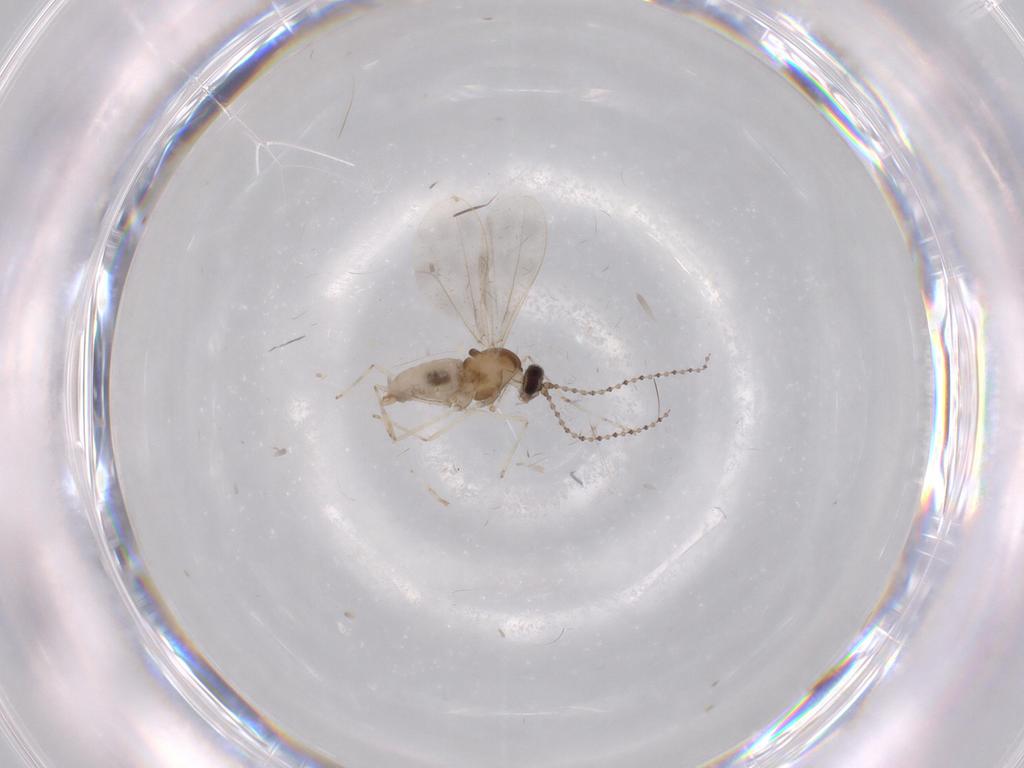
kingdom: Animalia
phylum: Arthropoda
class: Insecta
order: Diptera
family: Cecidomyiidae
